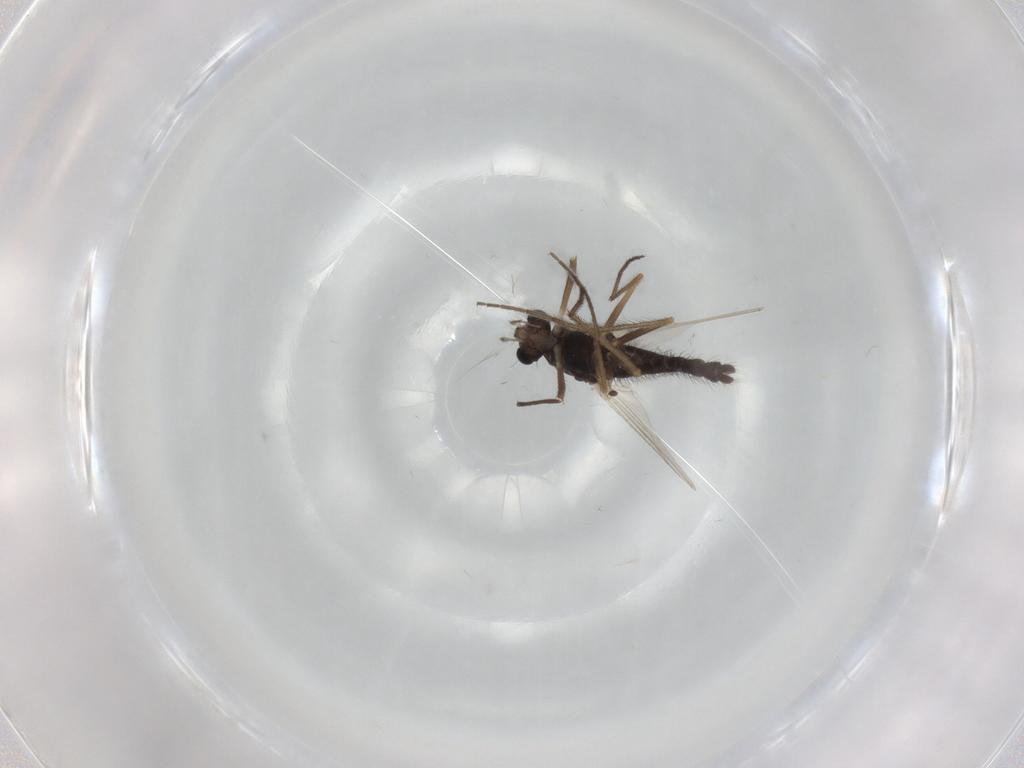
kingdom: Animalia
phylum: Arthropoda
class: Insecta
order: Diptera
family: Chironomidae
